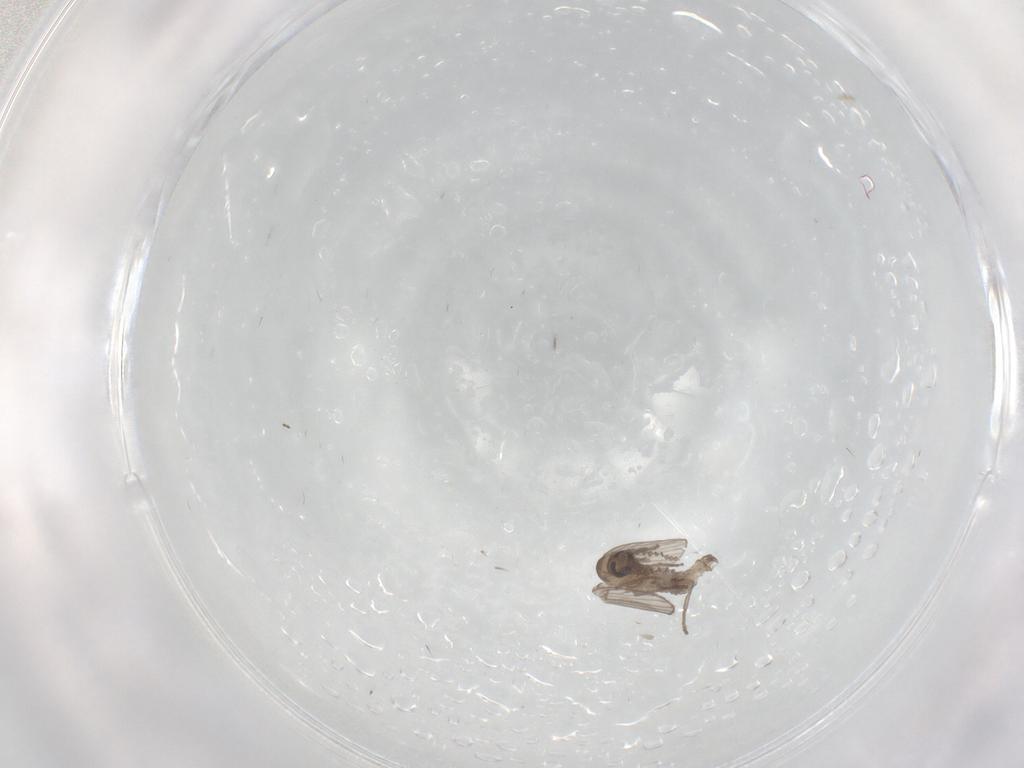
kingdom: Animalia
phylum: Arthropoda
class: Insecta
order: Diptera
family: Psychodidae
